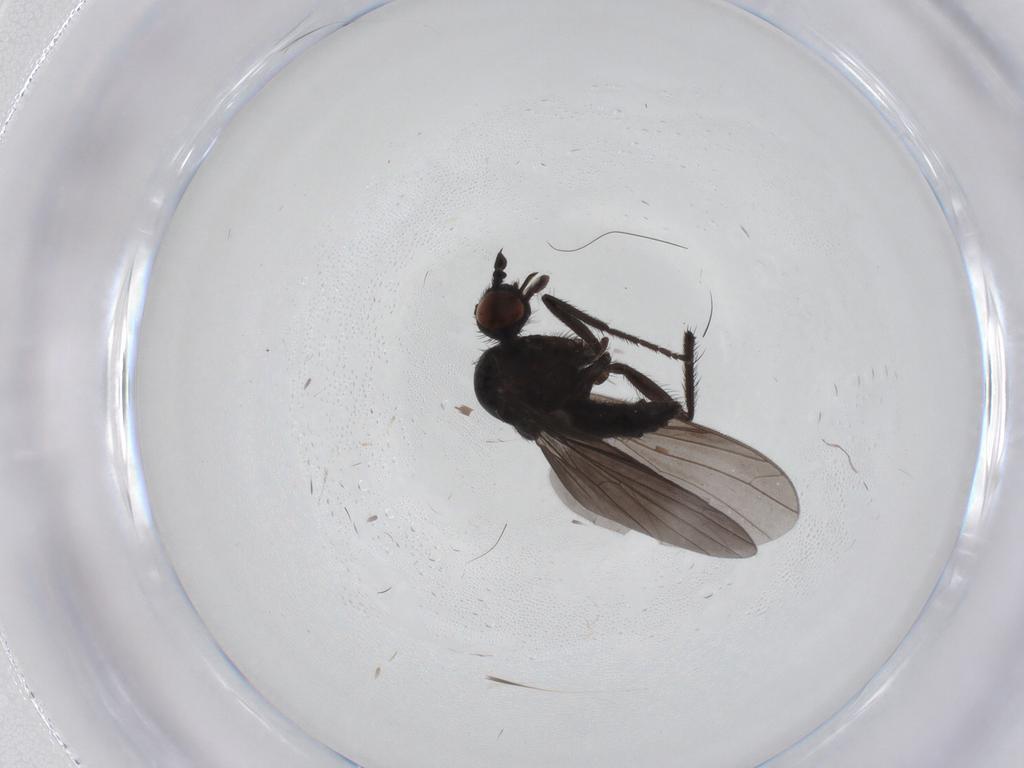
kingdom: Animalia
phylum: Arthropoda
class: Insecta
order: Diptera
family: Empididae
